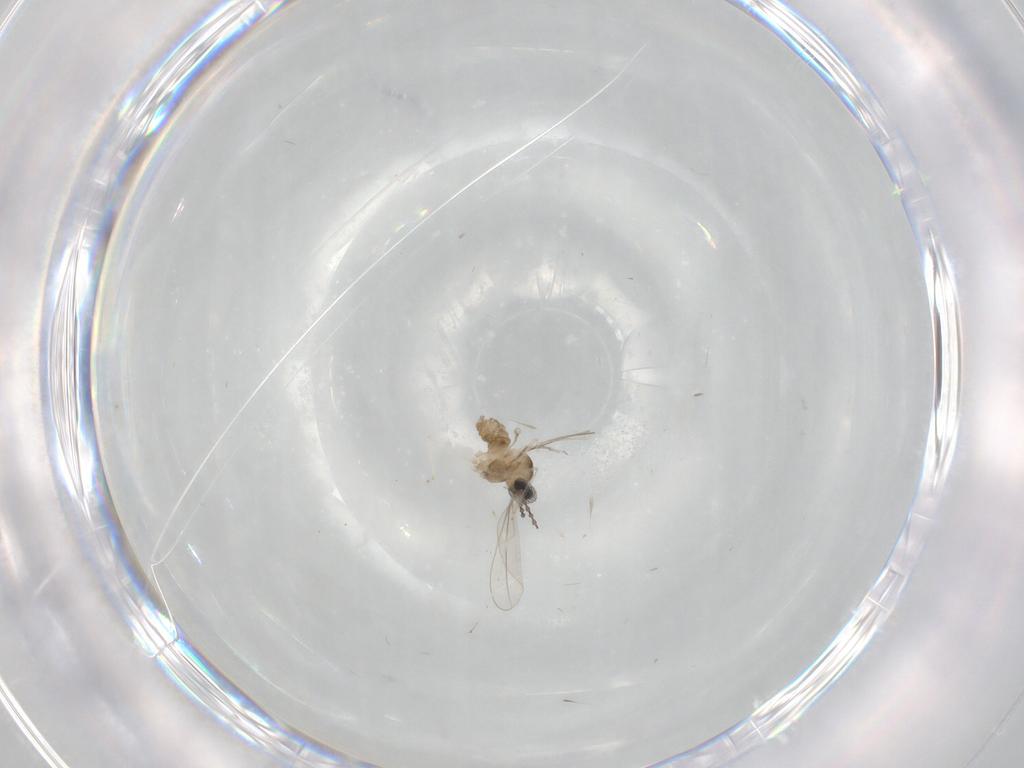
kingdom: Animalia
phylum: Arthropoda
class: Insecta
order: Diptera
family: Cecidomyiidae
